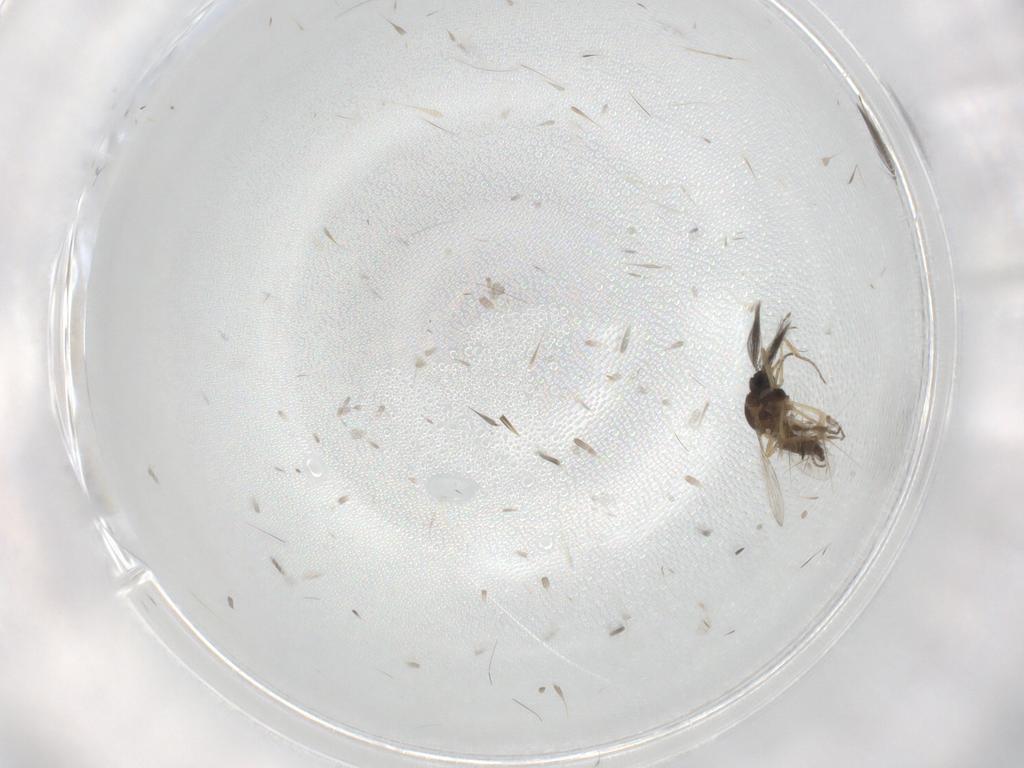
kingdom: Animalia
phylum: Arthropoda
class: Insecta
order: Diptera
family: Ceratopogonidae
